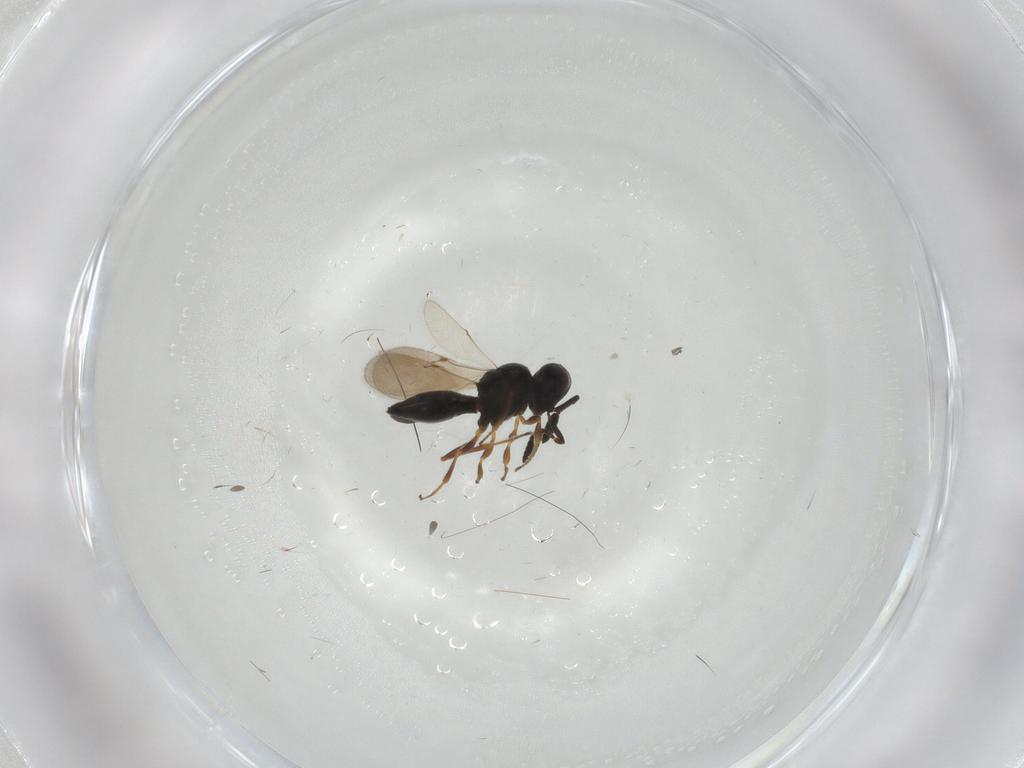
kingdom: Animalia
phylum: Arthropoda
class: Insecta
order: Hymenoptera
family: Scelionidae
